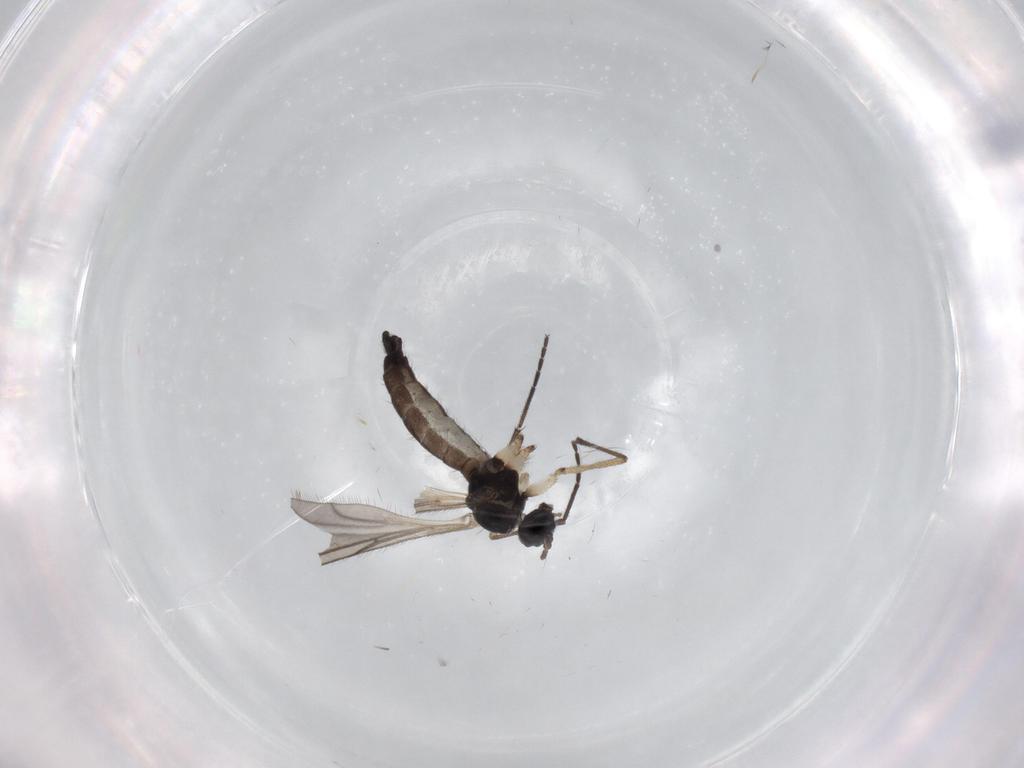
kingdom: Animalia
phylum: Arthropoda
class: Insecta
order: Diptera
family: Sciaridae
